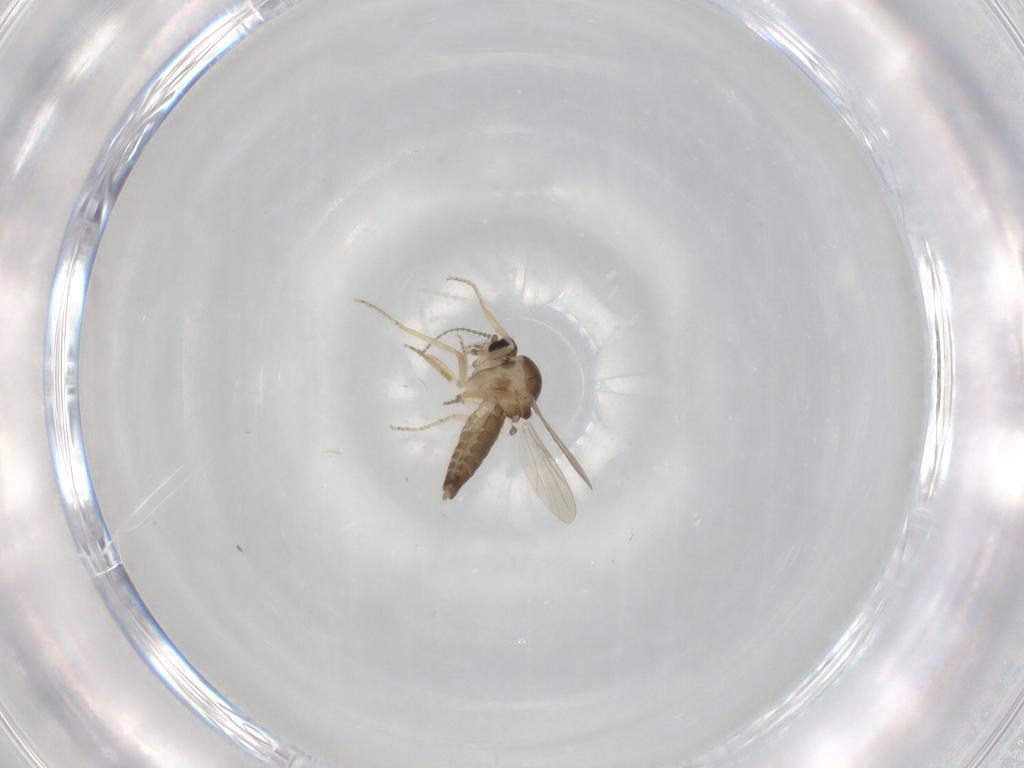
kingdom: Animalia
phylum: Arthropoda
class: Insecta
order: Diptera
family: Ceratopogonidae
